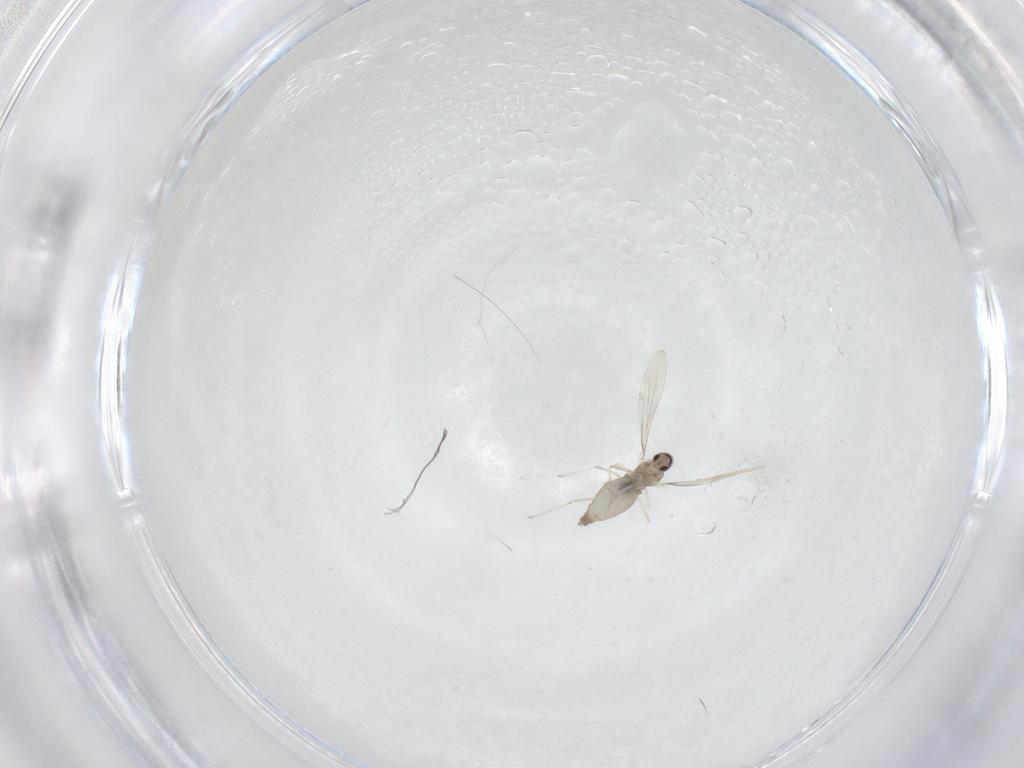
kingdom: Animalia
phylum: Arthropoda
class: Insecta
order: Diptera
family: Cecidomyiidae
